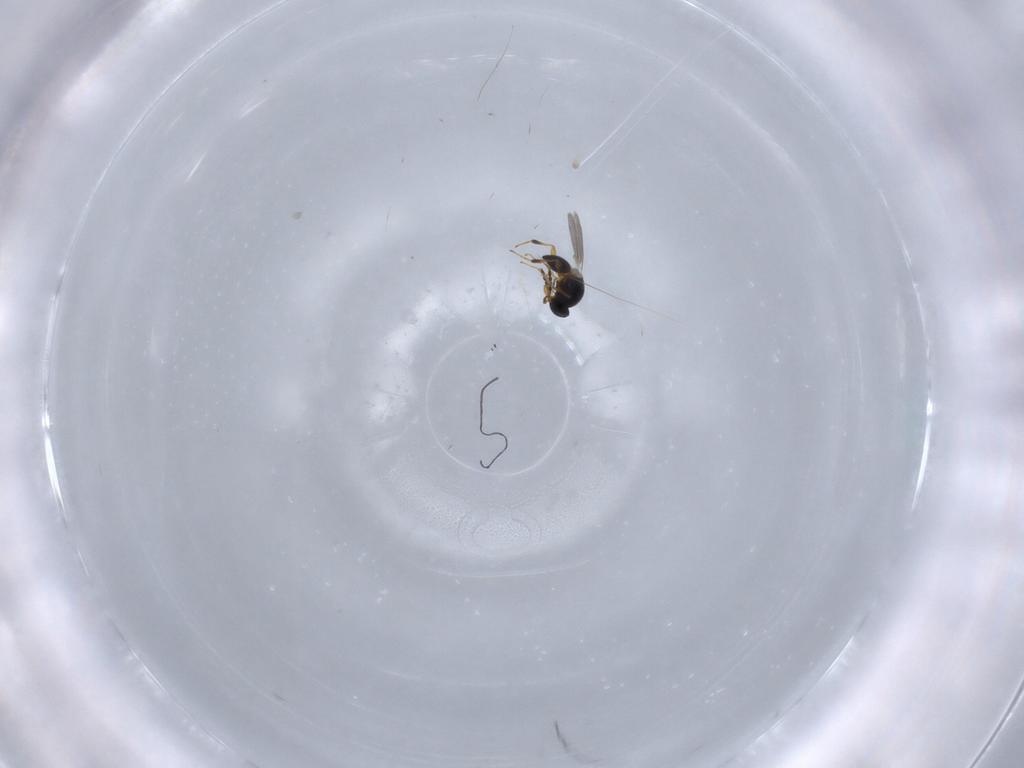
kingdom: Animalia
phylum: Arthropoda
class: Insecta
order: Hymenoptera
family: Platygastridae
